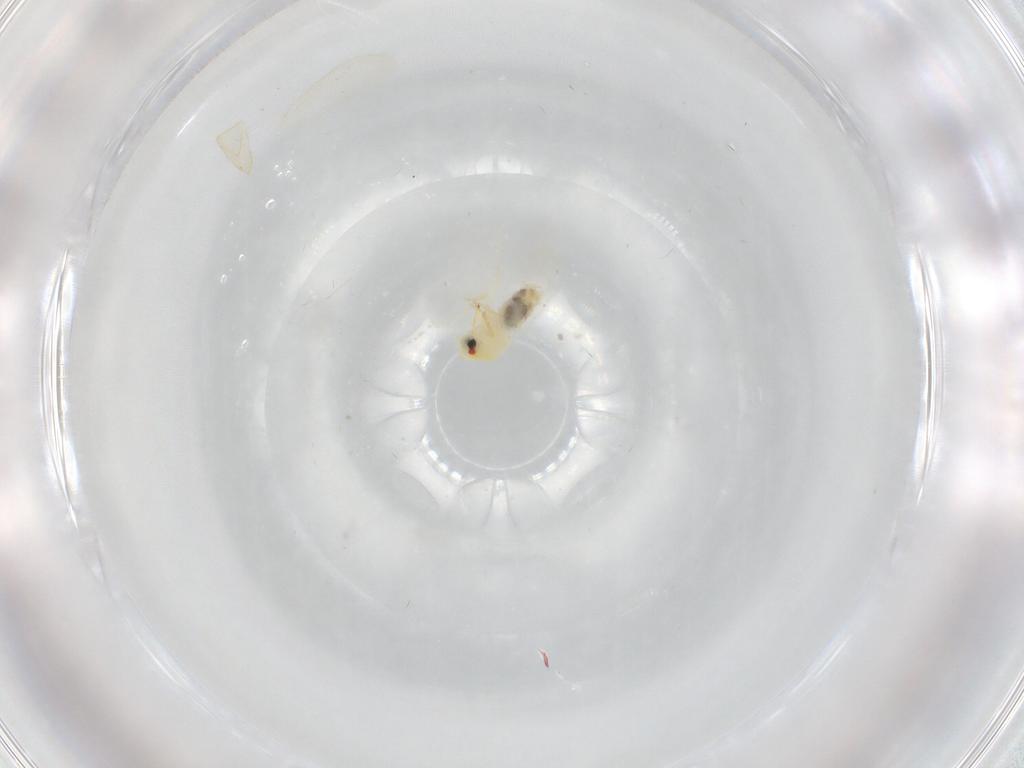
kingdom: Animalia
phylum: Arthropoda
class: Insecta
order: Hemiptera
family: Aleyrodidae
